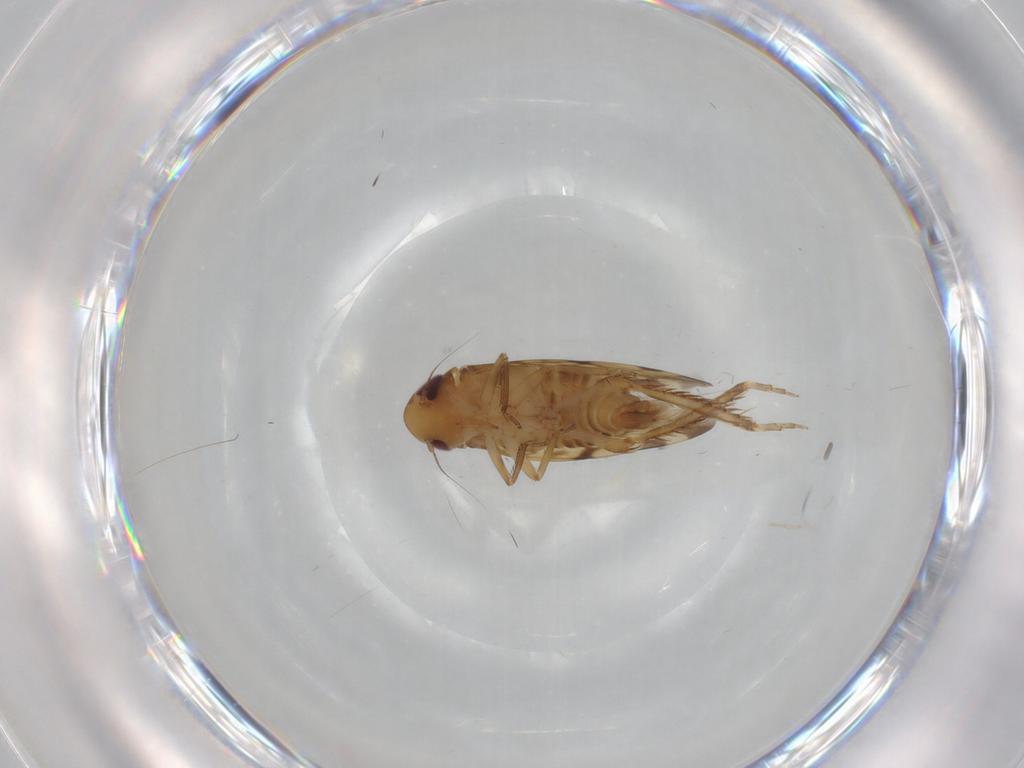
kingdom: Animalia
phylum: Arthropoda
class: Insecta
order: Hemiptera
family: Cicadellidae
